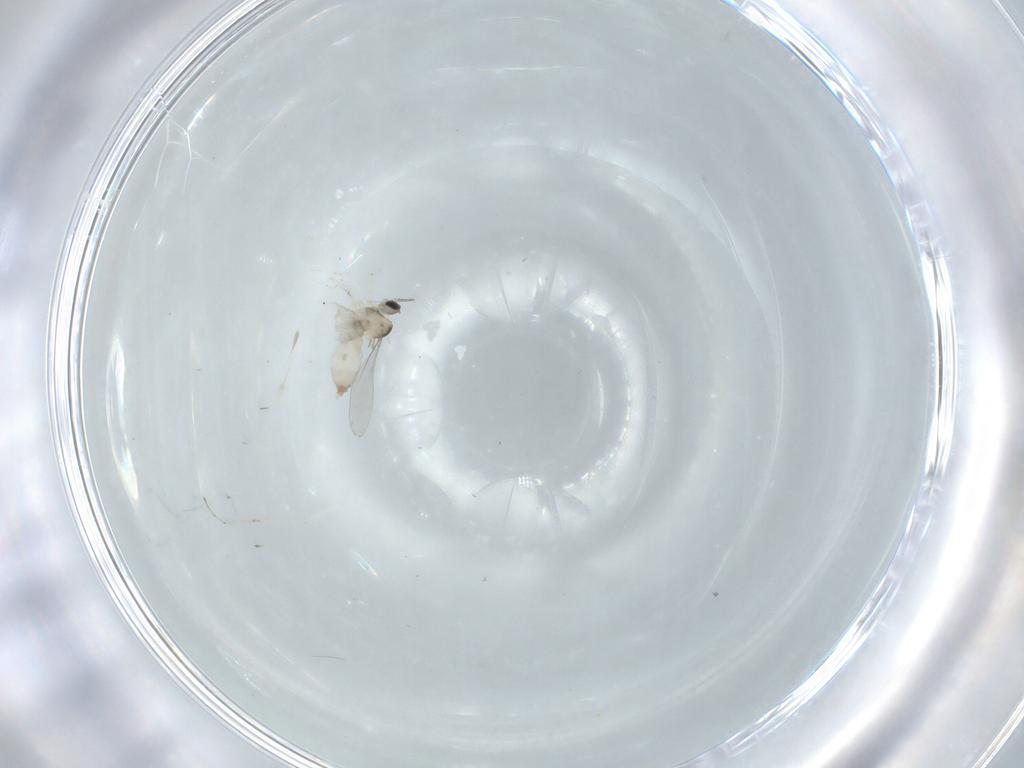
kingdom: Animalia
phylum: Arthropoda
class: Insecta
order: Diptera
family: Cecidomyiidae
